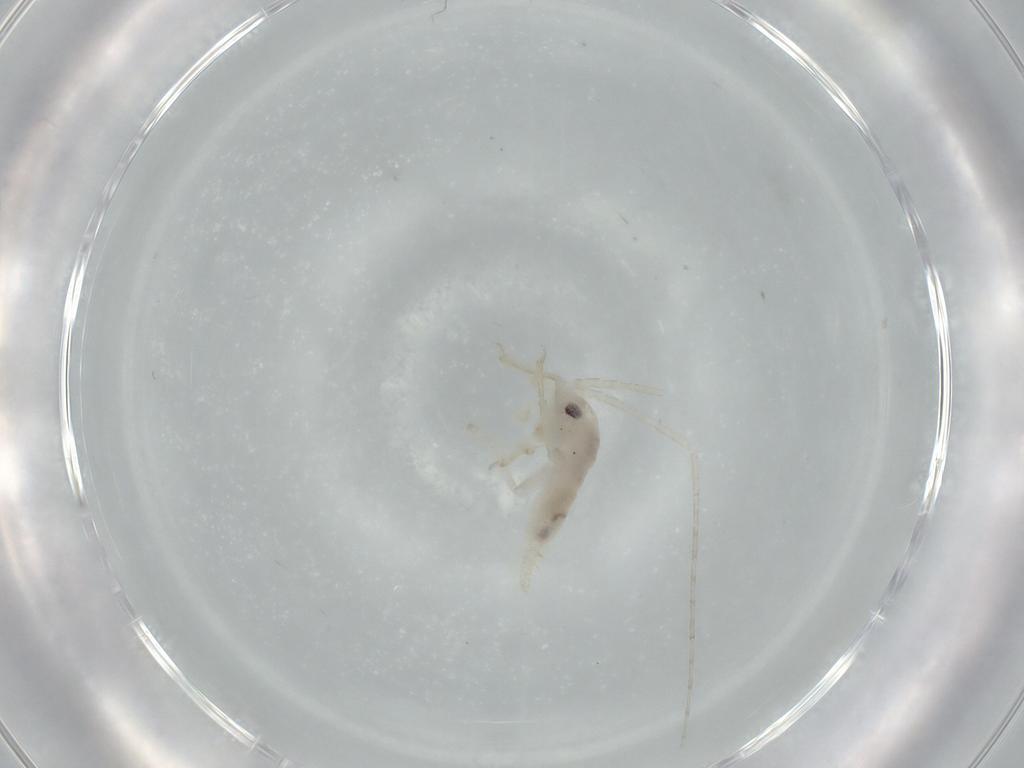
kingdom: Animalia
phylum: Arthropoda
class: Insecta
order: Orthoptera
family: Trigonidiidae
